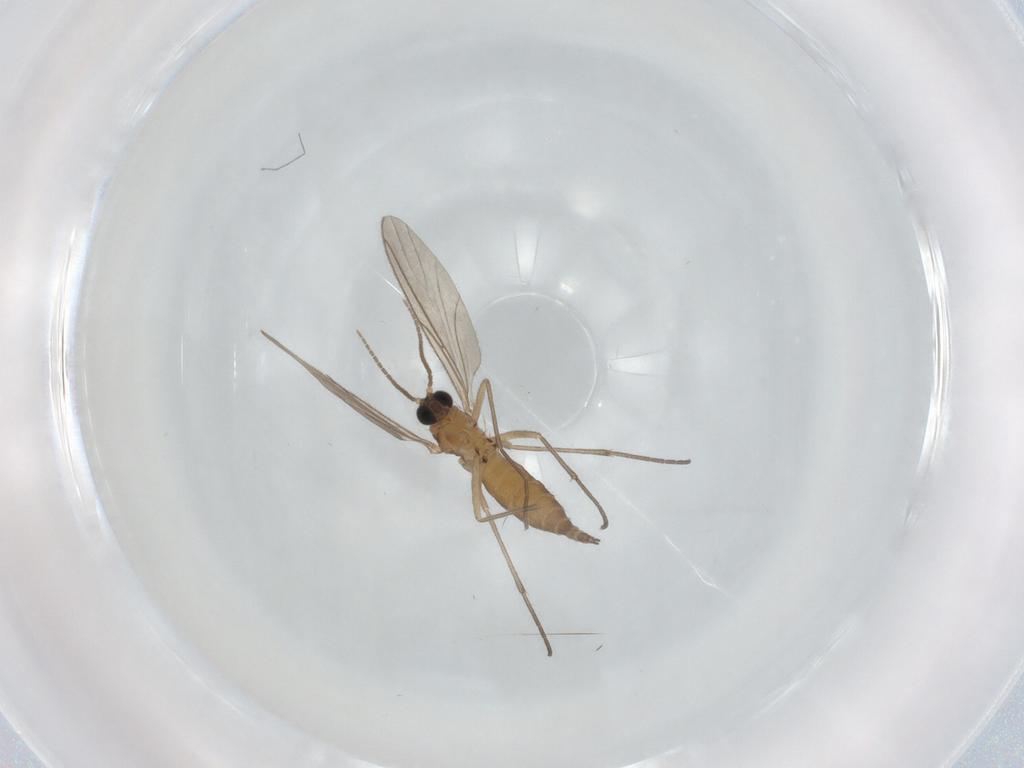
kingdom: Animalia
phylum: Arthropoda
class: Insecta
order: Diptera
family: Sciaridae
